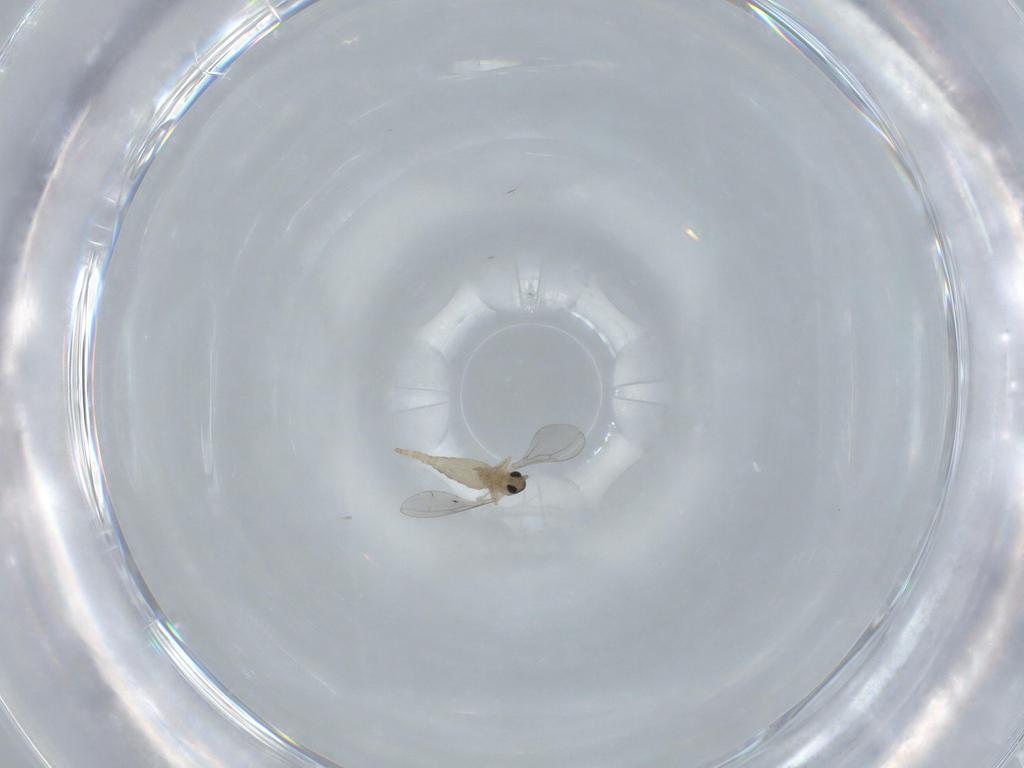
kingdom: Animalia
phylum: Arthropoda
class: Insecta
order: Diptera
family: Cecidomyiidae
